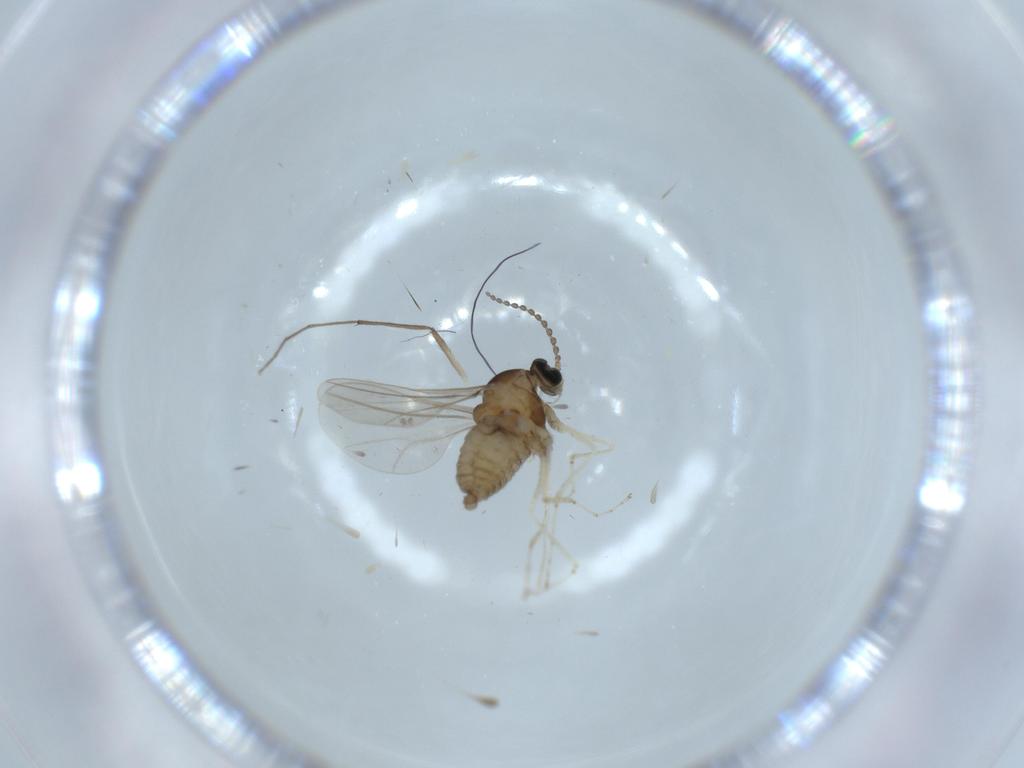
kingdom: Animalia
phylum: Arthropoda
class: Insecta
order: Diptera
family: Cecidomyiidae
